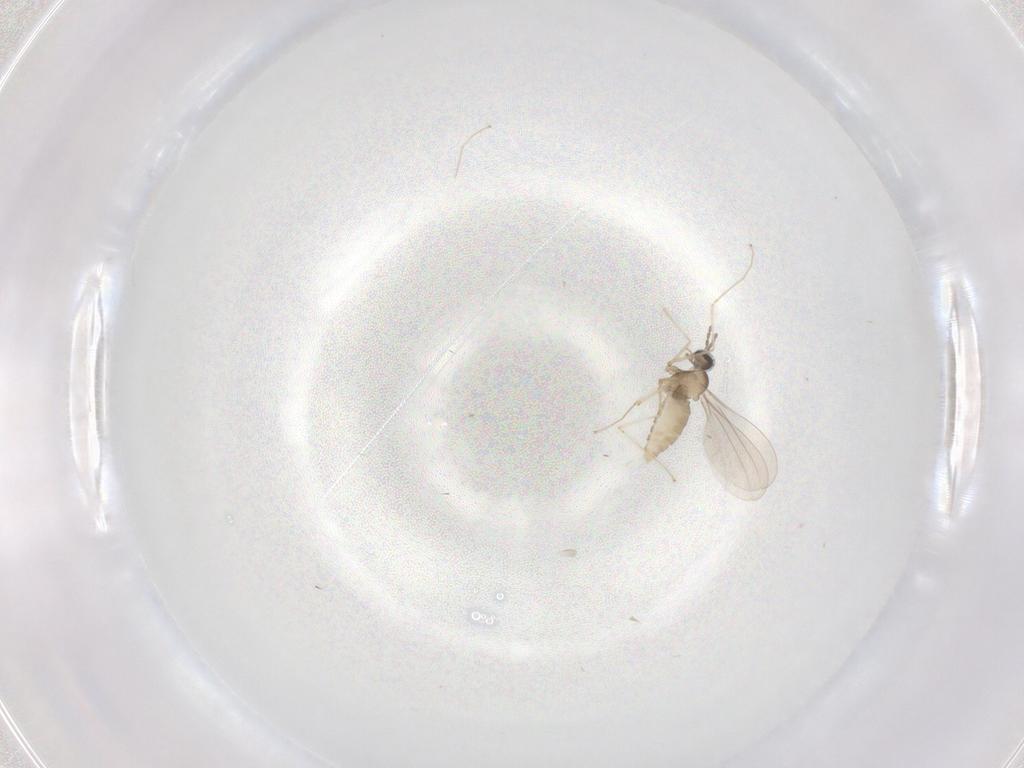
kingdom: Animalia
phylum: Arthropoda
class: Insecta
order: Diptera
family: Cecidomyiidae
